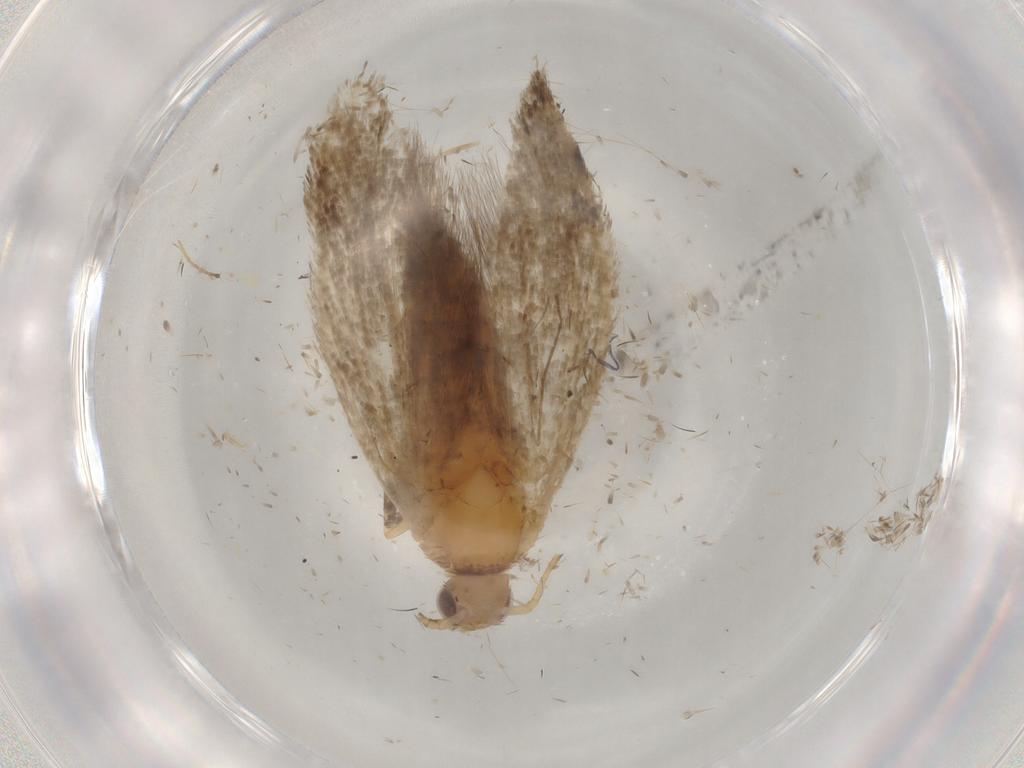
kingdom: Animalia
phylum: Arthropoda
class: Insecta
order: Lepidoptera
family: Ypsolophidae
